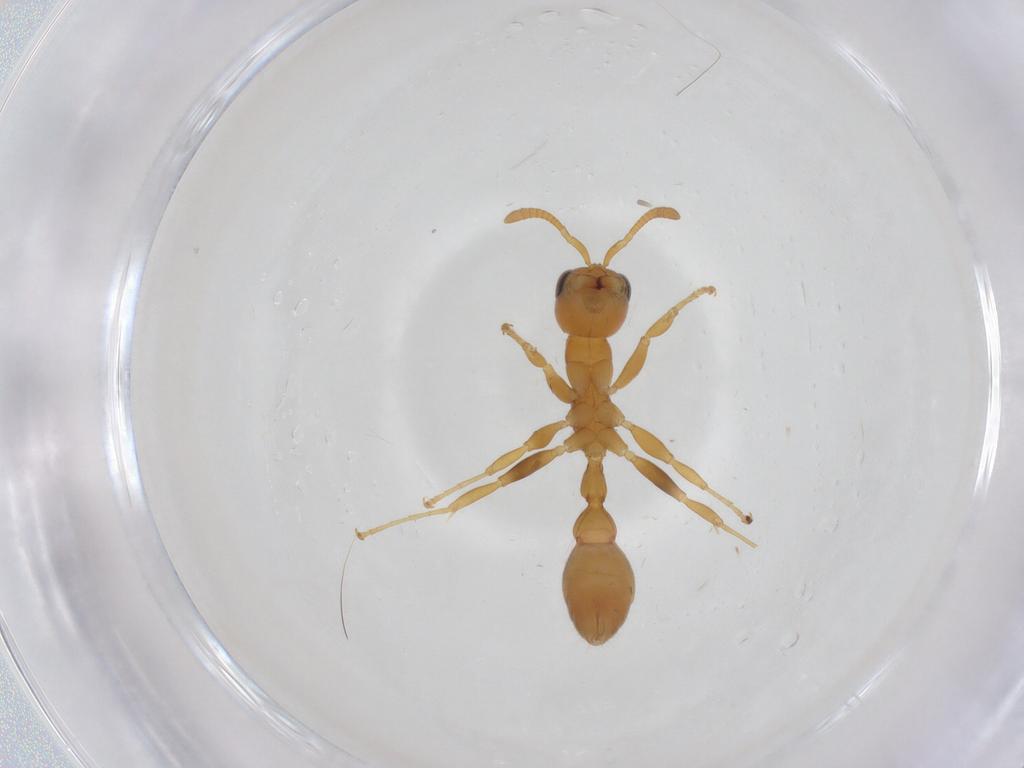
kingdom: Animalia
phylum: Arthropoda
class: Insecta
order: Hymenoptera
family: Formicidae
